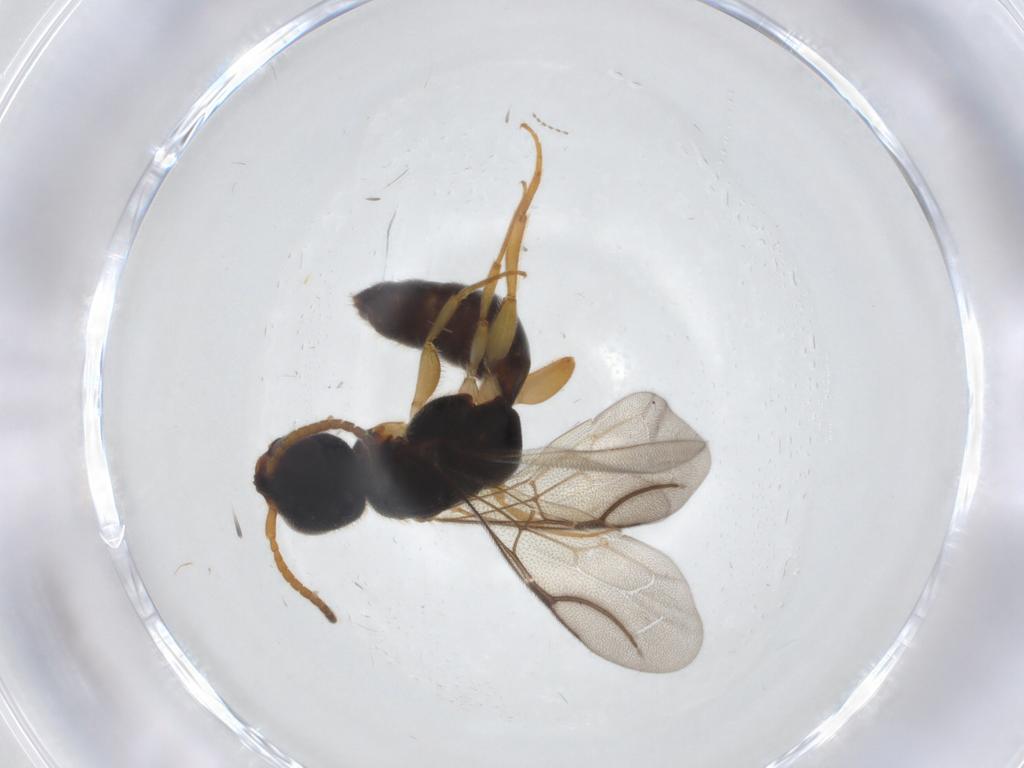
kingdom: Animalia
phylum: Arthropoda
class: Insecta
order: Hymenoptera
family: Bethylidae
